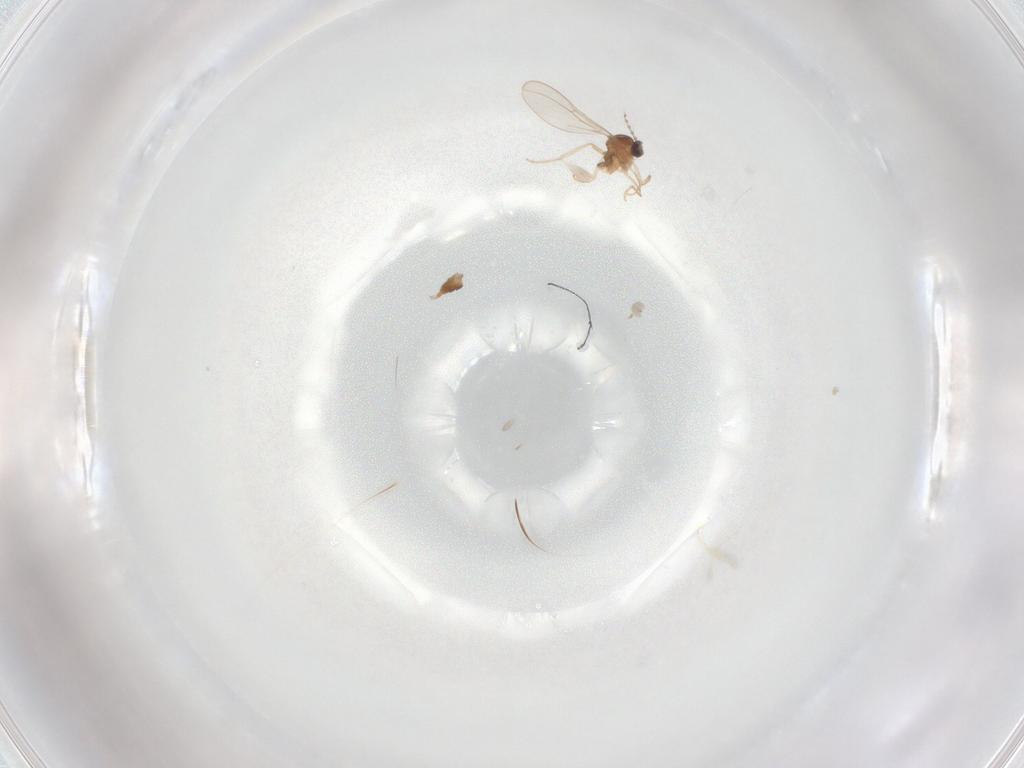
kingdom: Animalia
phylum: Arthropoda
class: Insecta
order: Diptera
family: Cecidomyiidae
